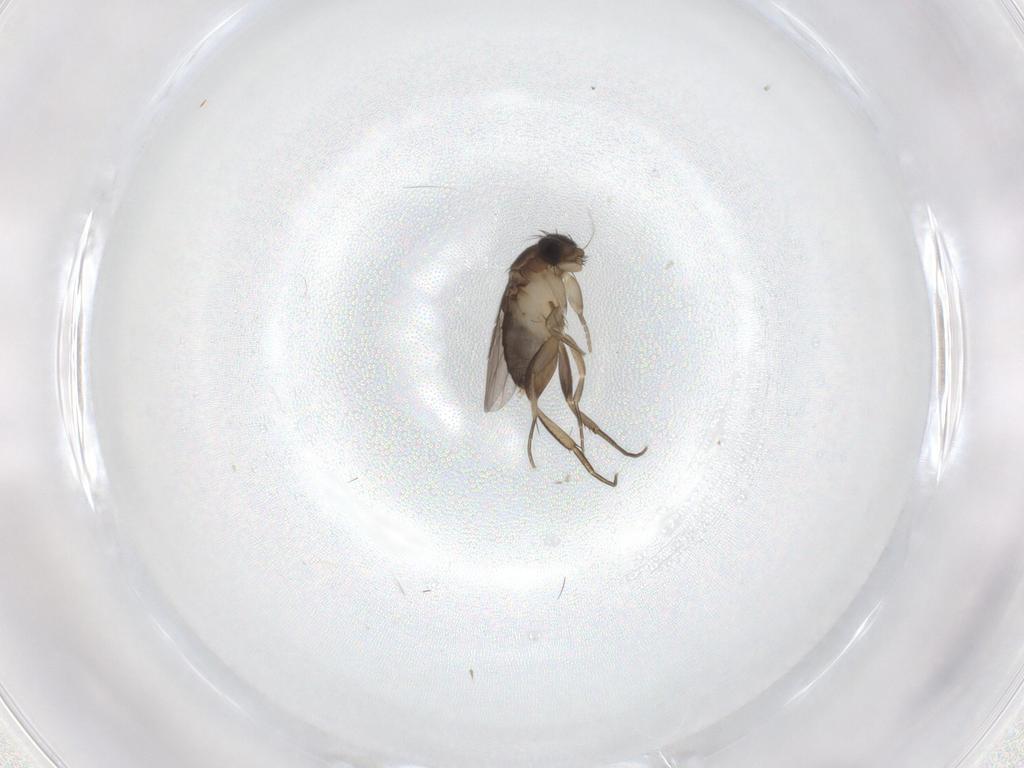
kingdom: Animalia
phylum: Arthropoda
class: Insecta
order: Diptera
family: Phoridae
